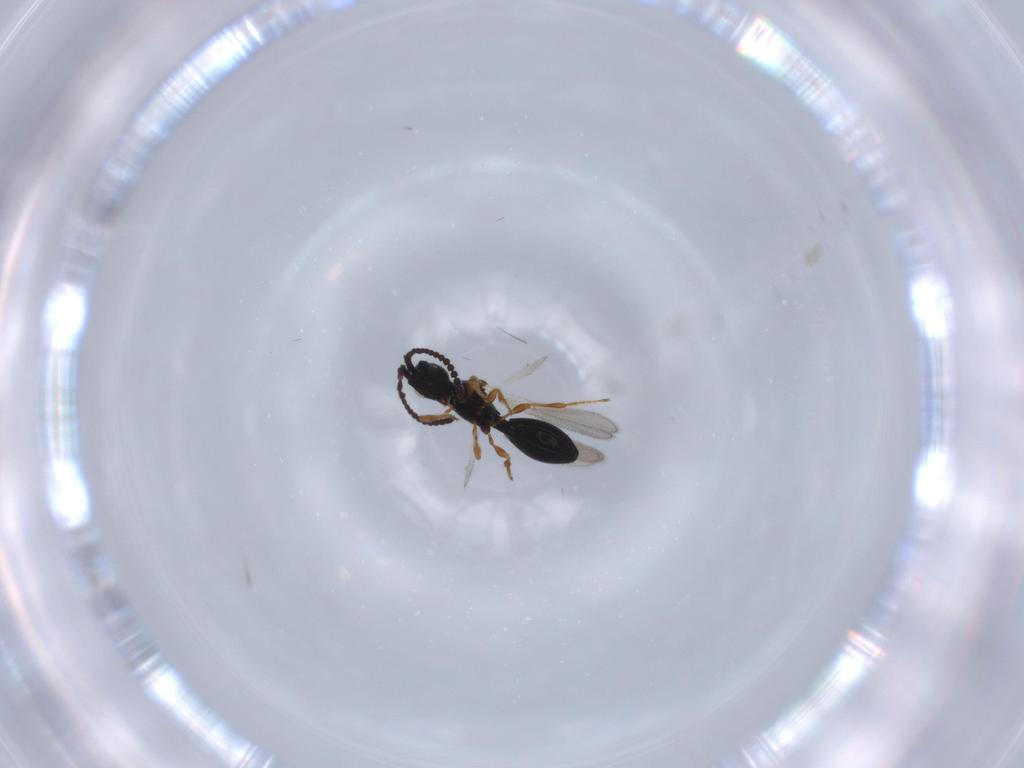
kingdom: Animalia
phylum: Arthropoda
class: Insecta
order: Hymenoptera
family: Diapriidae
